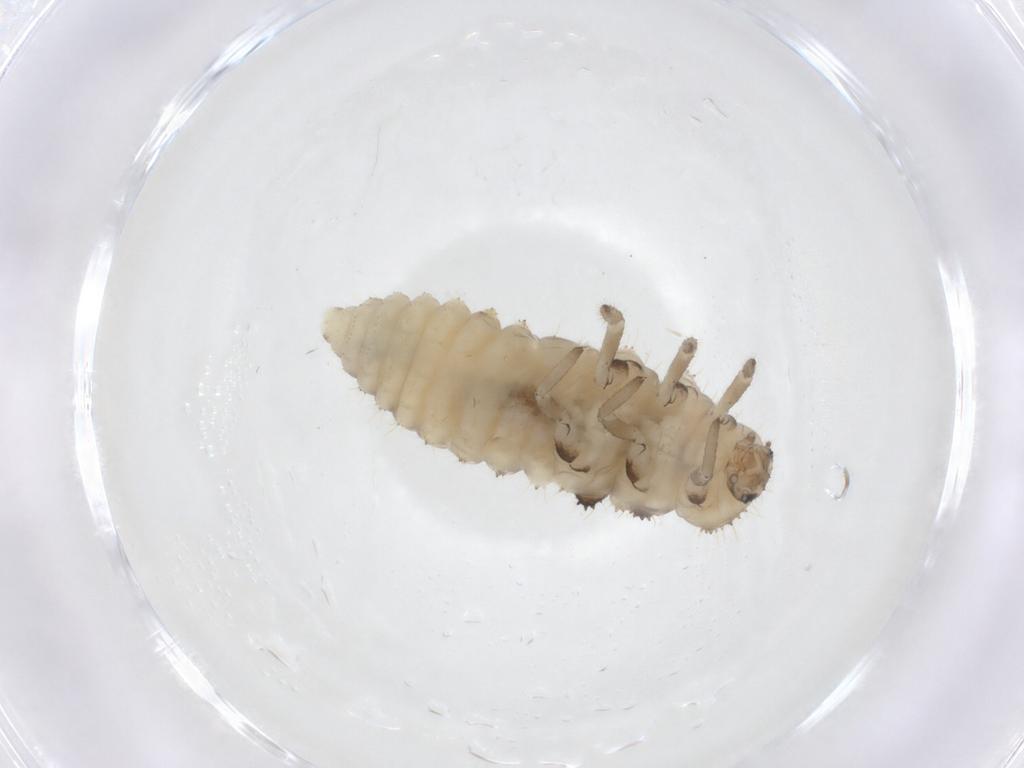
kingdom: Animalia
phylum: Arthropoda
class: Insecta
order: Coleoptera
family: Coccinellidae
